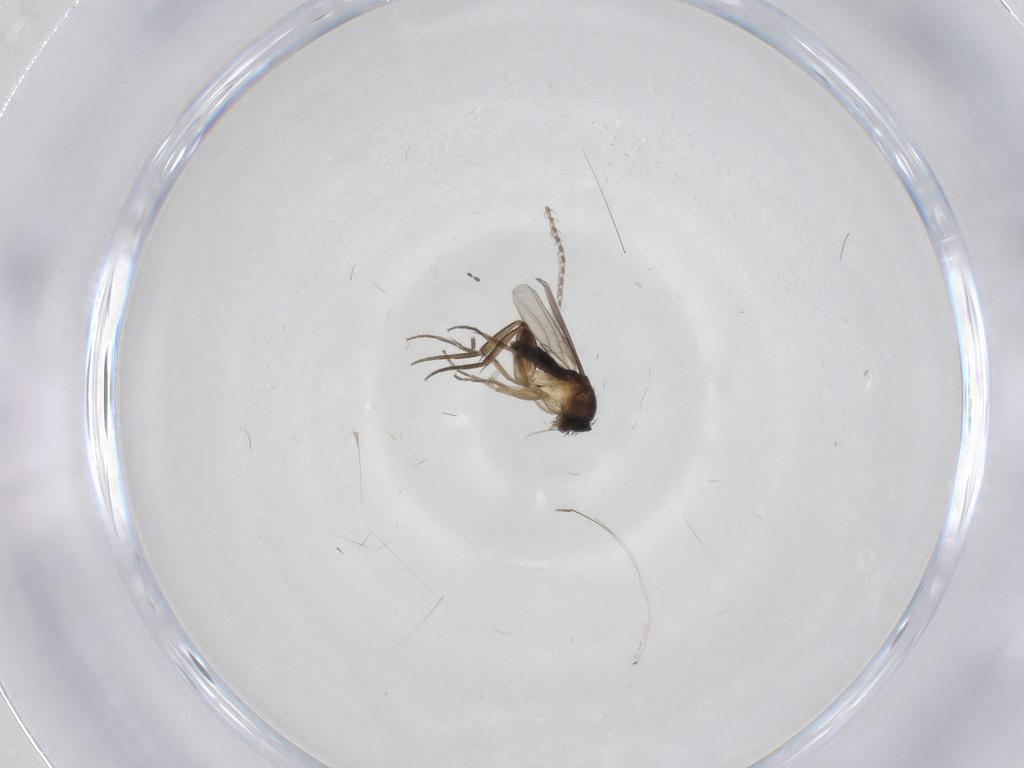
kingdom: Animalia
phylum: Arthropoda
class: Insecta
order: Diptera
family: Phoridae
